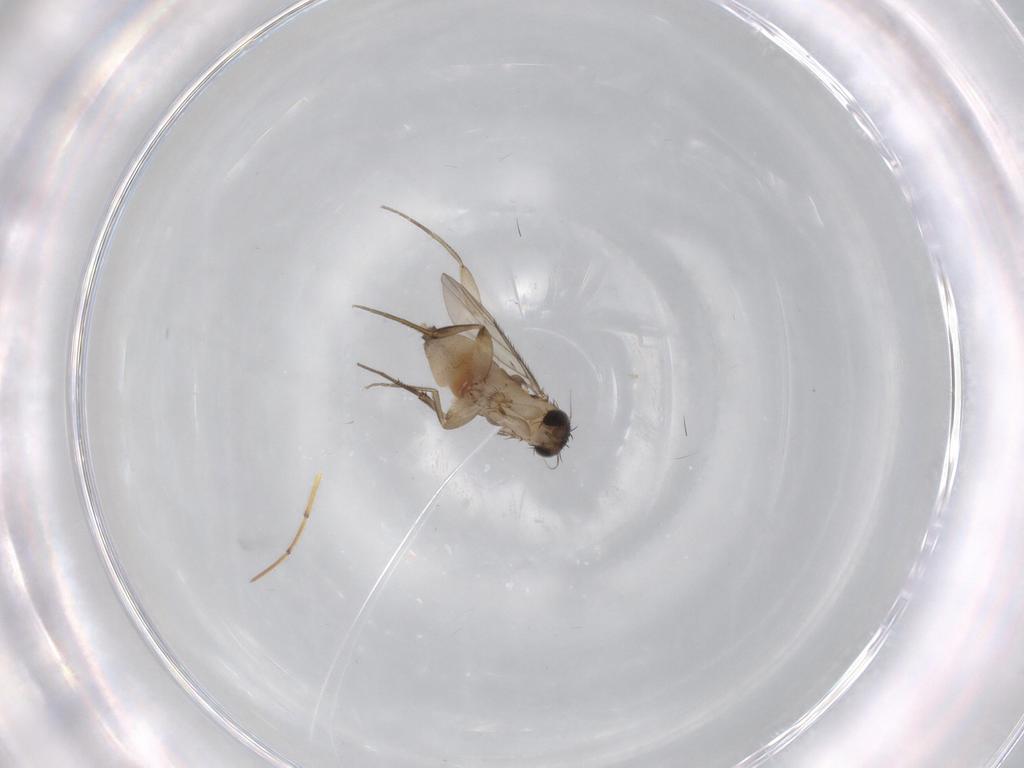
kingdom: Animalia
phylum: Arthropoda
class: Insecta
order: Diptera
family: Phoridae
